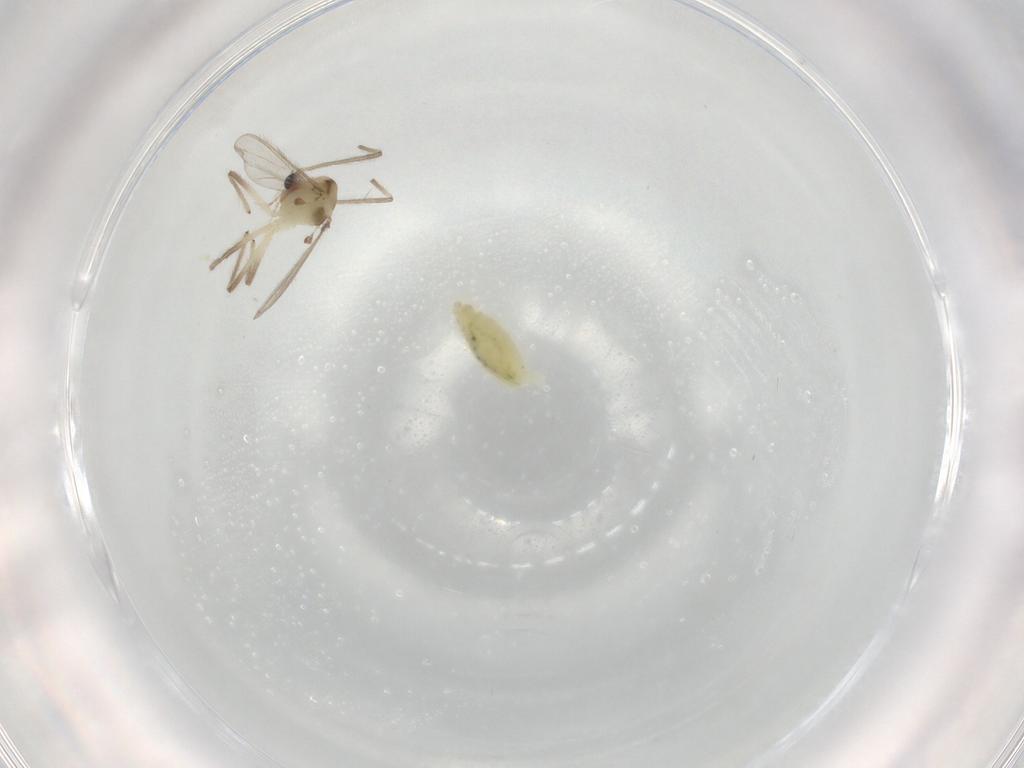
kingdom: Animalia
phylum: Arthropoda
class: Insecta
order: Diptera
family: Chironomidae
